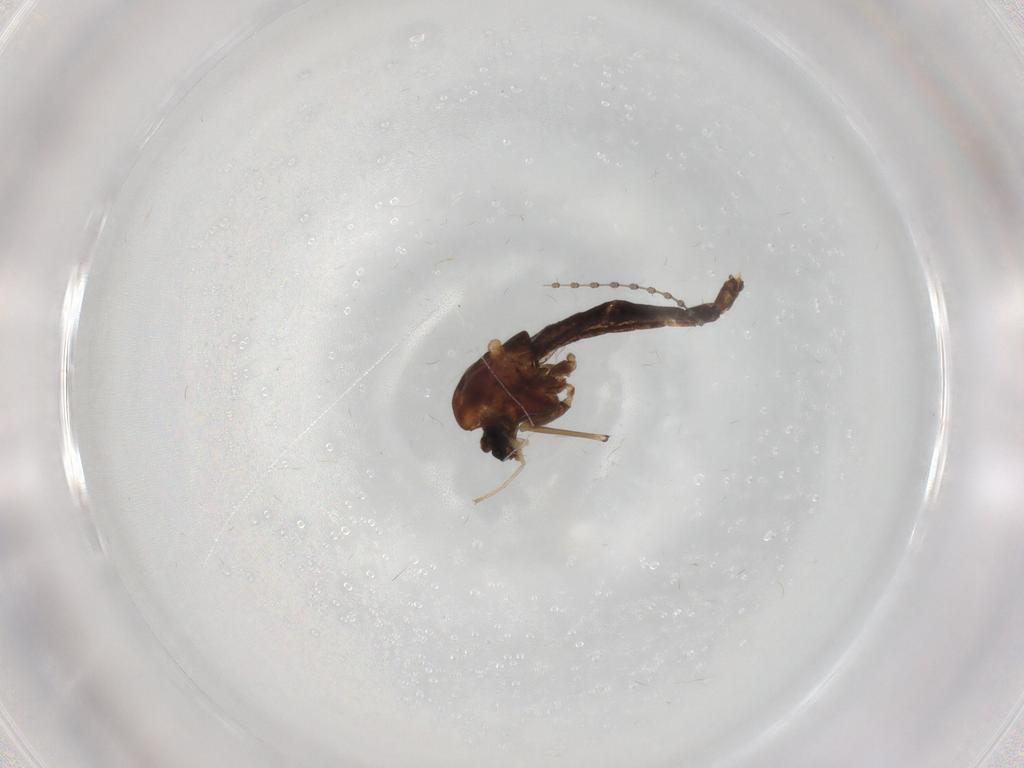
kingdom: Animalia
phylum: Arthropoda
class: Insecta
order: Diptera
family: Chironomidae
